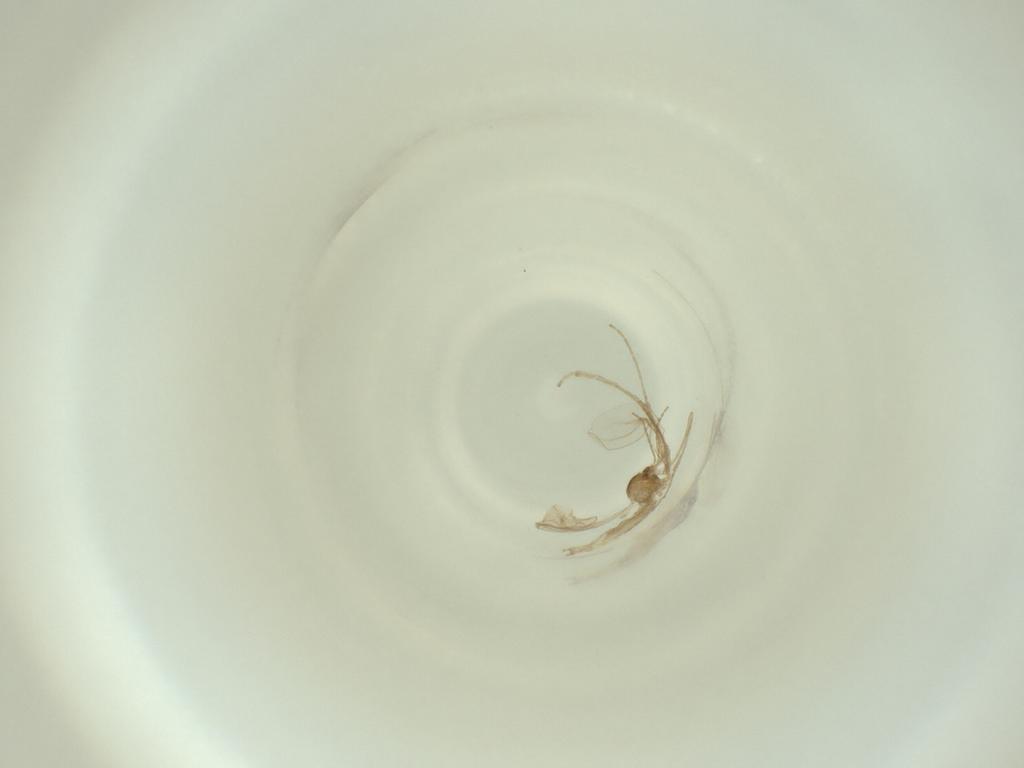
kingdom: Animalia
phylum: Arthropoda
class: Insecta
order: Diptera
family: Cecidomyiidae
